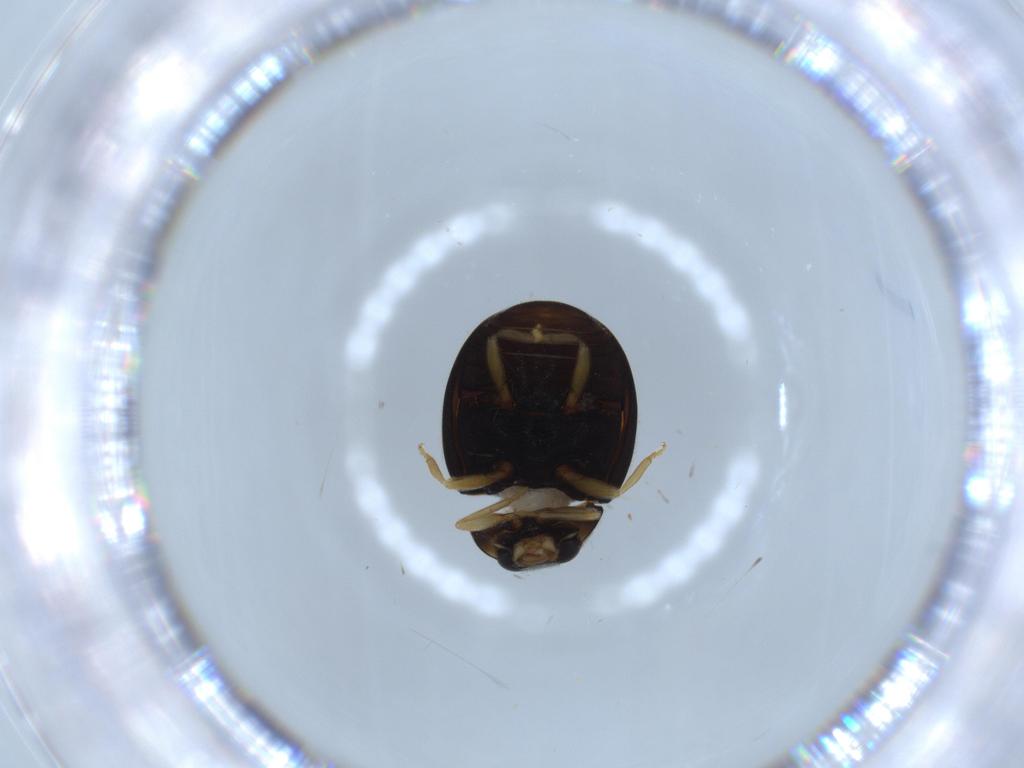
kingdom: Animalia
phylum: Arthropoda
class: Insecta
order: Coleoptera
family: Coccinellidae
